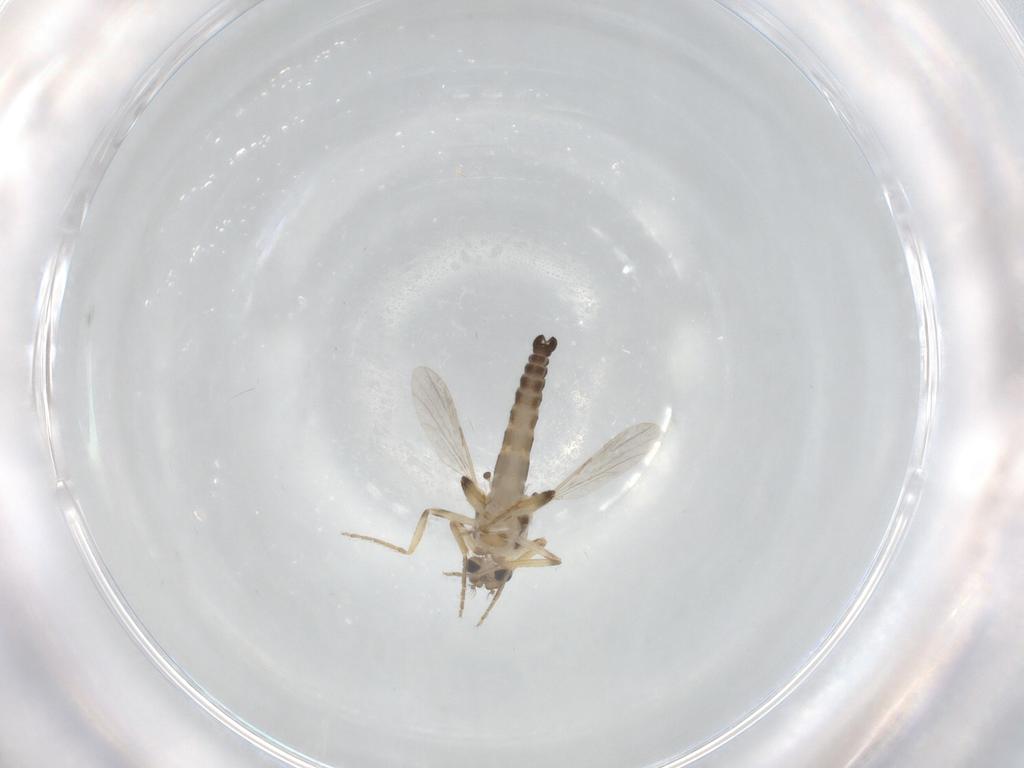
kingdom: Animalia
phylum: Arthropoda
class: Insecta
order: Diptera
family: Ceratopogonidae
